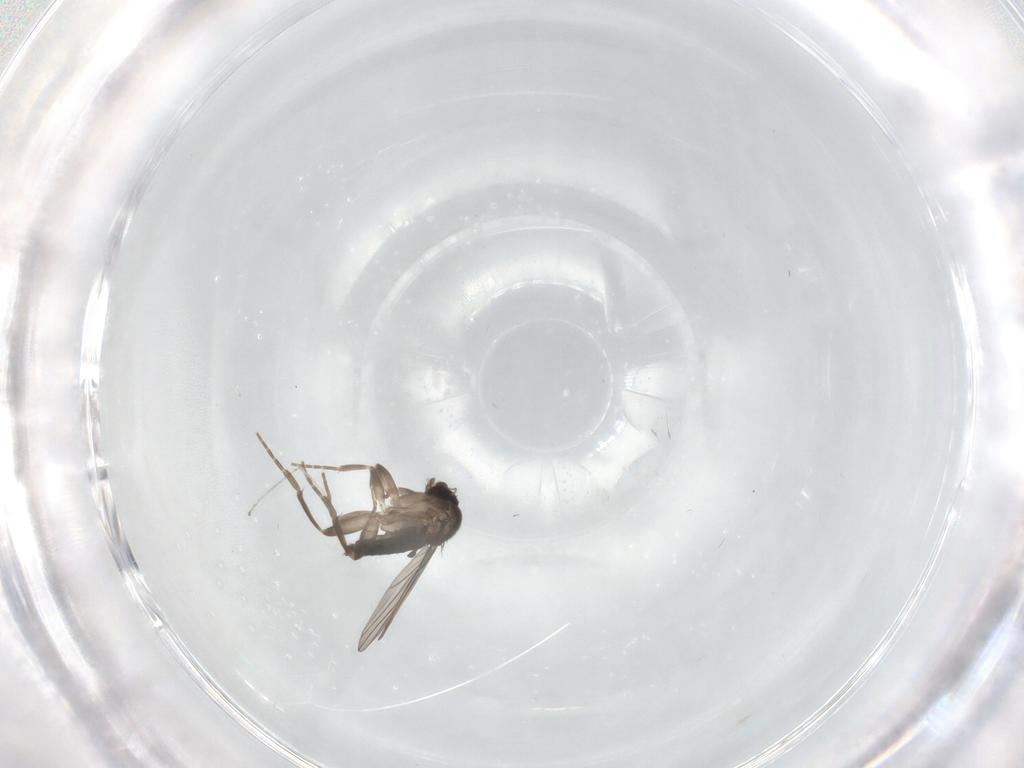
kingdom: Animalia
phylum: Arthropoda
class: Insecta
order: Diptera
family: Phoridae
